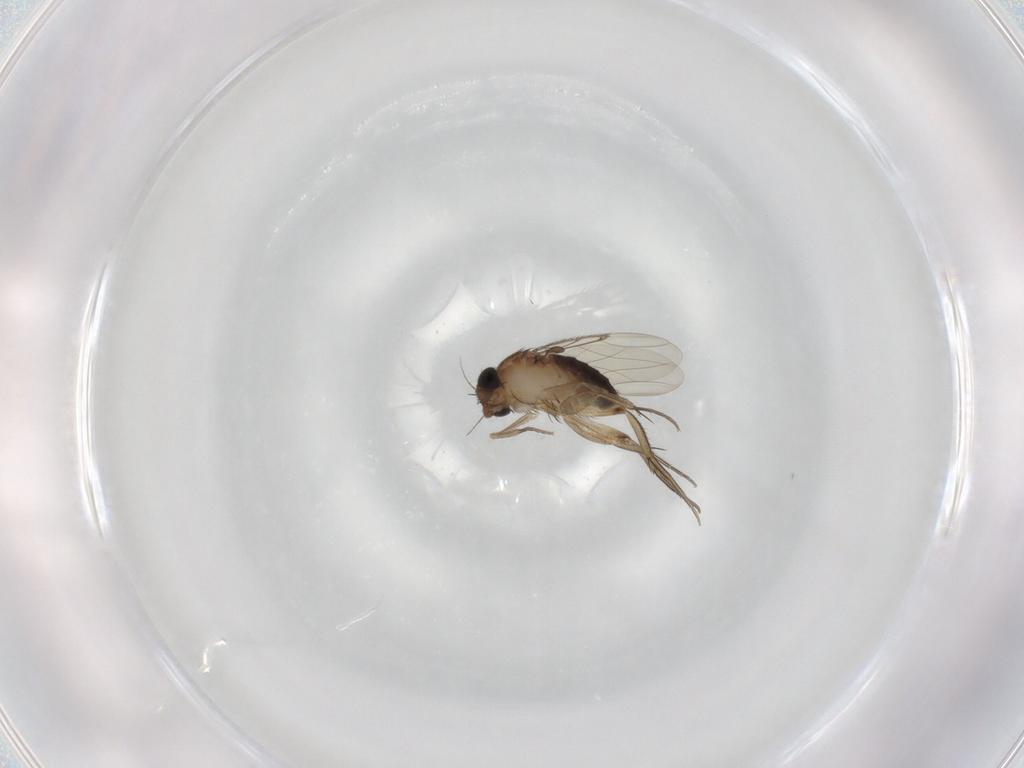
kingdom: Animalia
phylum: Arthropoda
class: Insecta
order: Diptera
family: Phoridae
